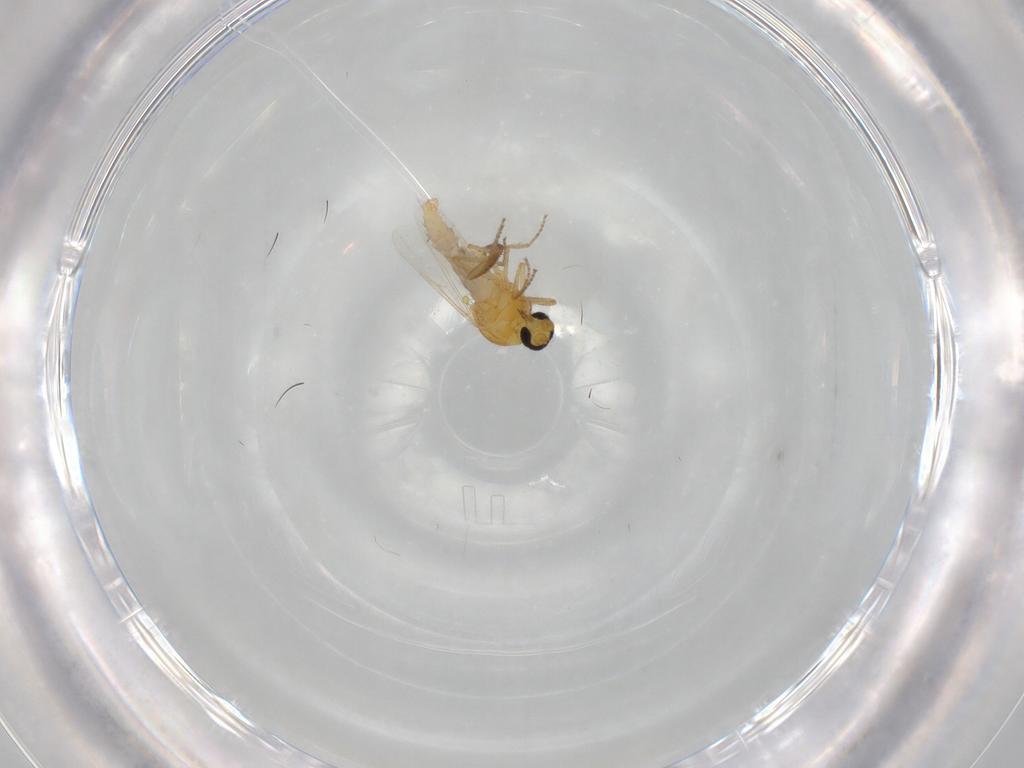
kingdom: Animalia
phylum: Arthropoda
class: Insecta
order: Diptera
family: Ceratopogonidae
